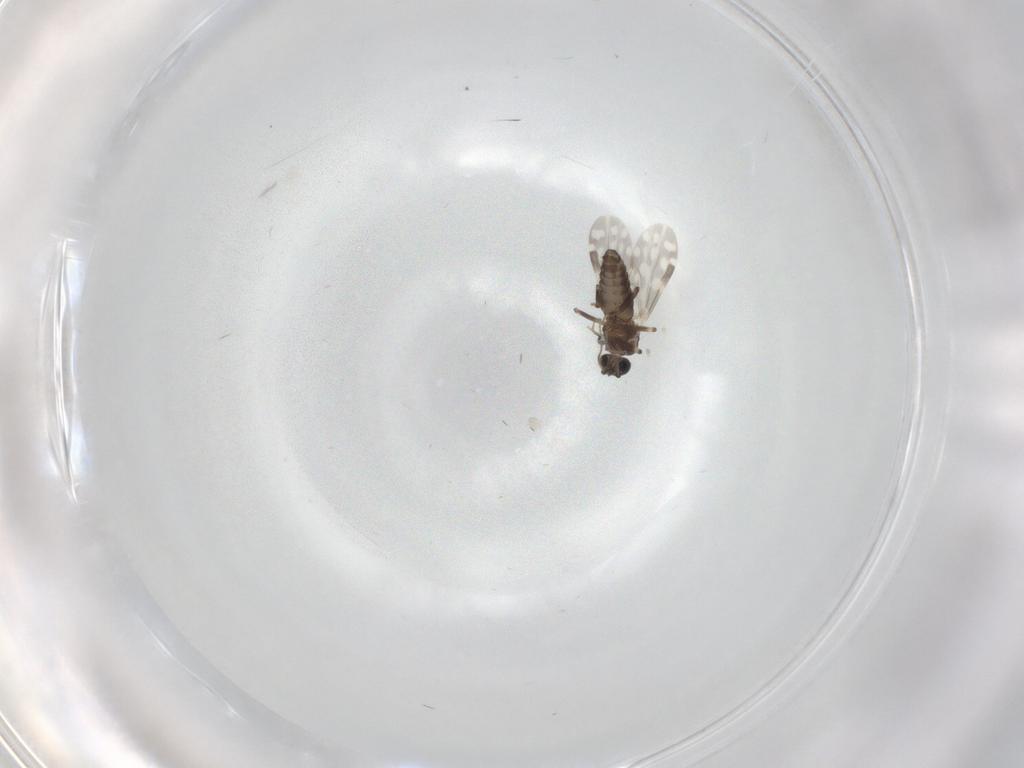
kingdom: Animalia
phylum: Arthropoda
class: Insecta
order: Diptera
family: Ceratopogonidae
